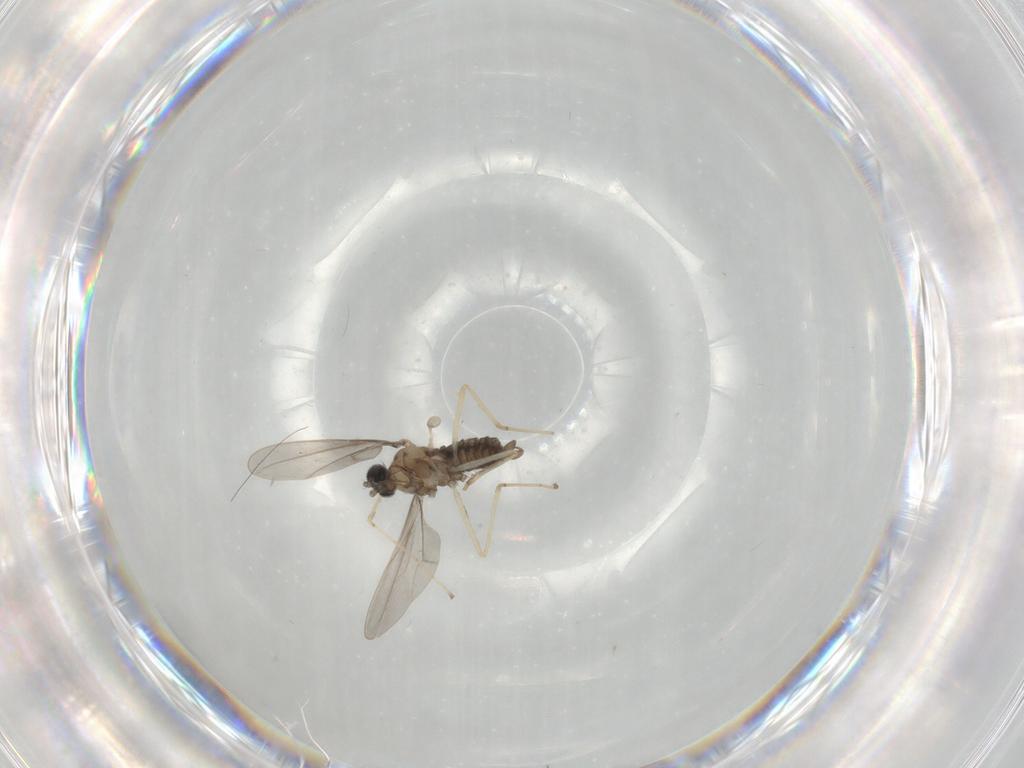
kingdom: Animalia
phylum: Arthropoda
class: Insecta
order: Diptera
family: Cecidomyiidae
